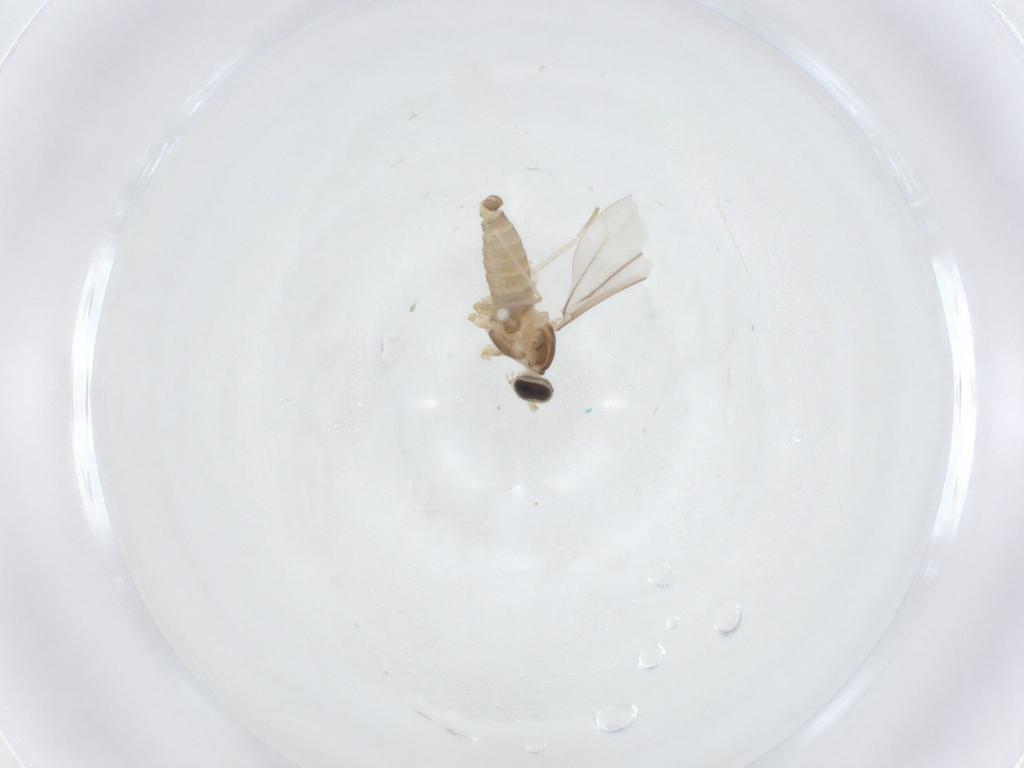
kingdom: Animalia
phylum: Arthropoda
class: Insecta
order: Diptera
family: Cecidomyiidae
